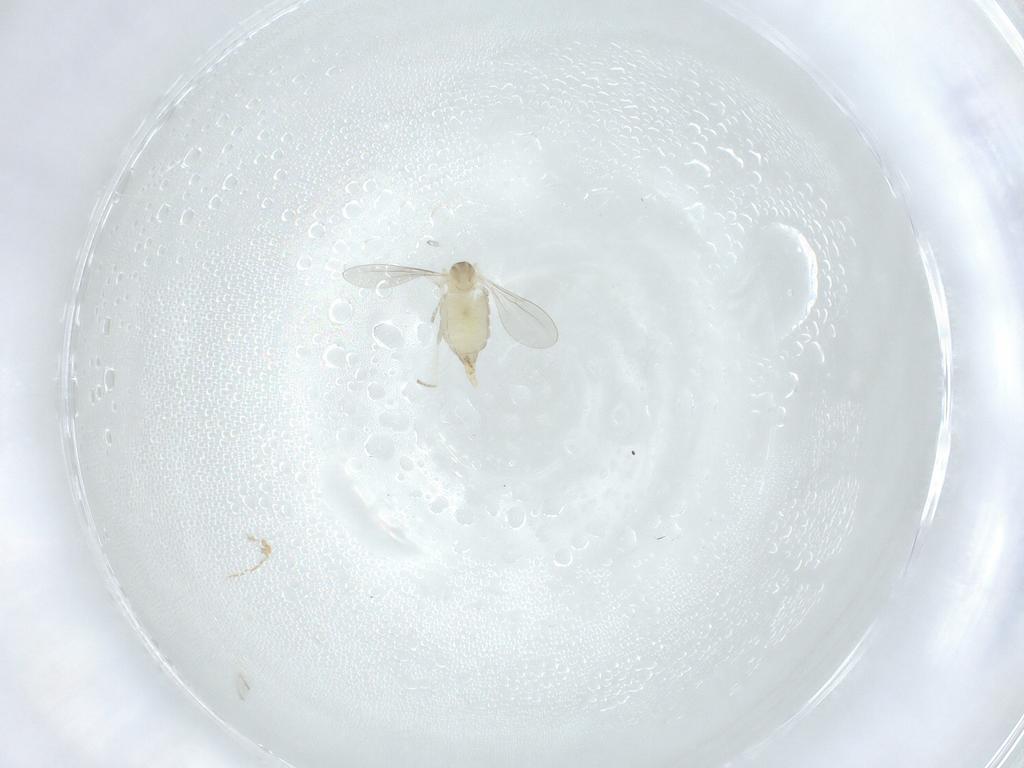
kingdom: Animalia
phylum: Arthropoda
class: Insecta
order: Diptera
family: Cecidomyiidae
